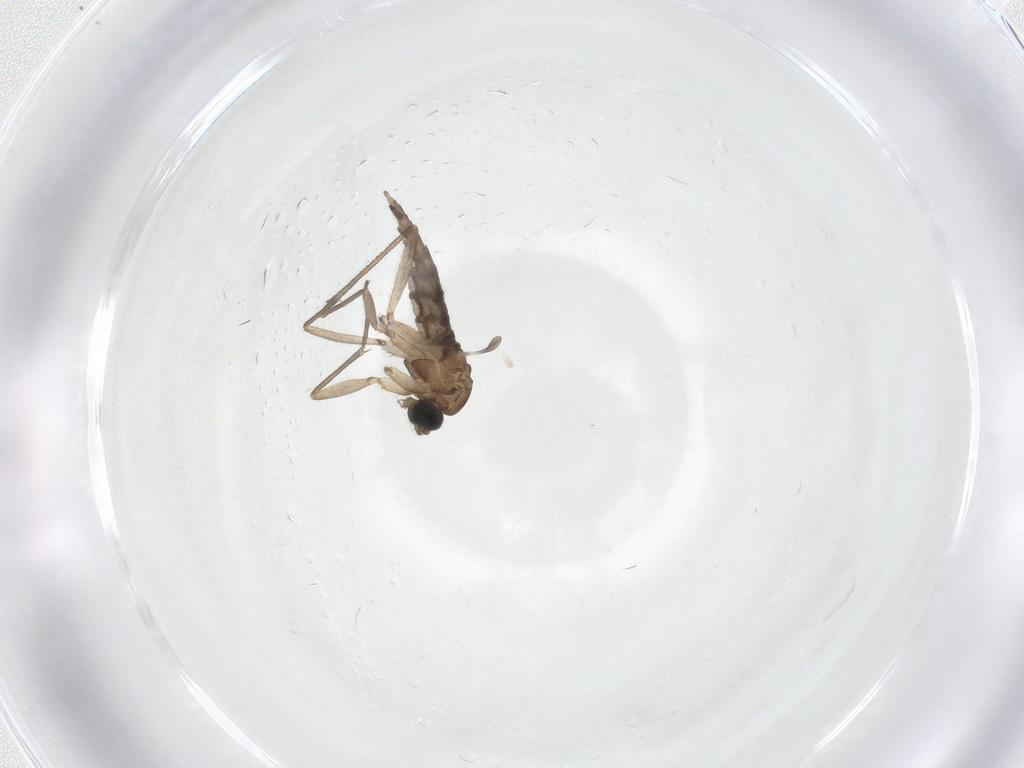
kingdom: Animalia
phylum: Arthropoda
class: Insecta
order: Diptera
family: Sciaridae
